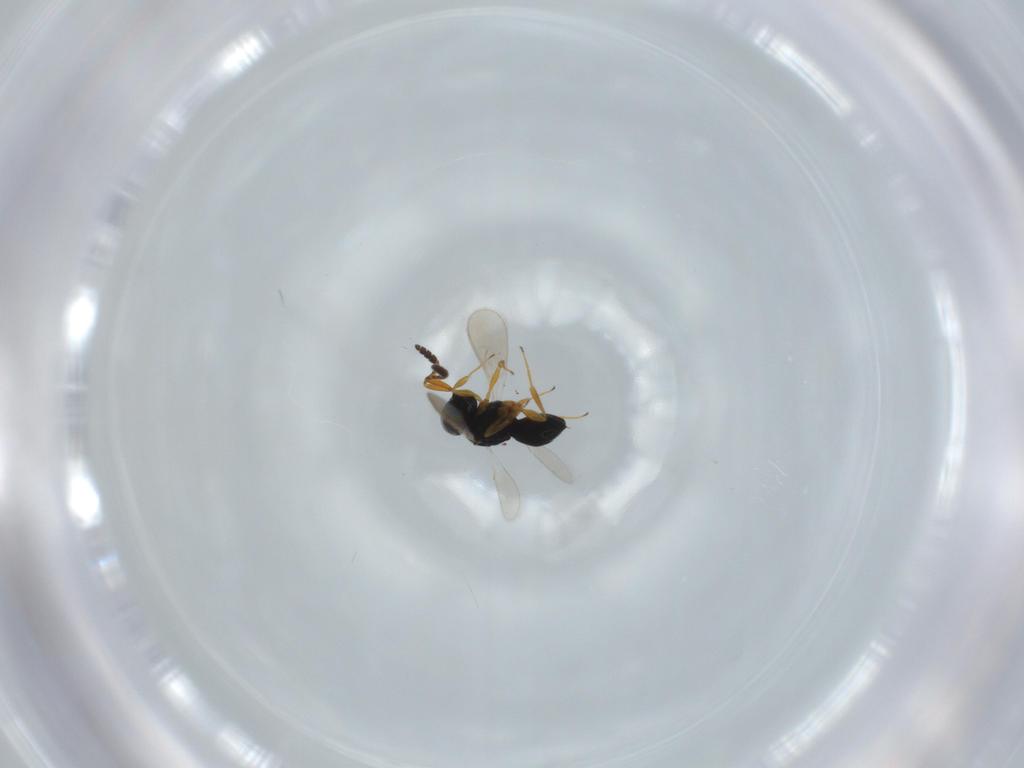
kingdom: Animalia
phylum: Arthropoda
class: Insecta
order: Hymenoptera
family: Scelionidae
